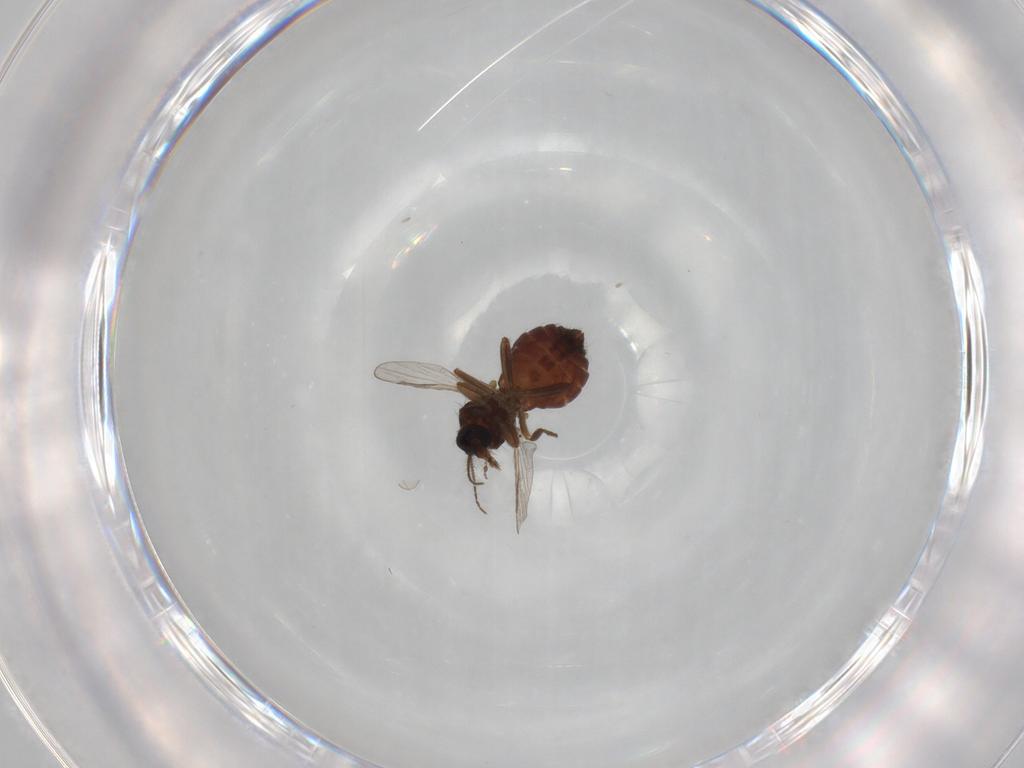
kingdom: Animalia
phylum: Arthropoda
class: Insecta
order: Diptera
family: Ceratopogonidae
